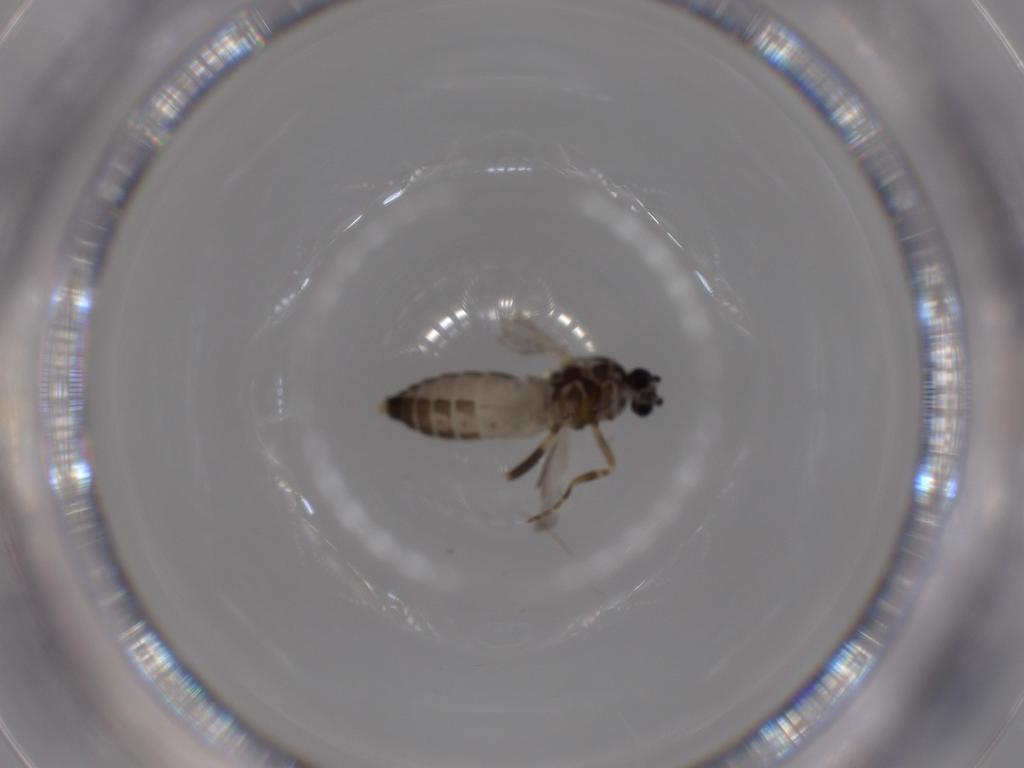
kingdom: Animalia
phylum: Arthropoda
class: Insecta
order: Diptera
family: Ceratopogonidae
